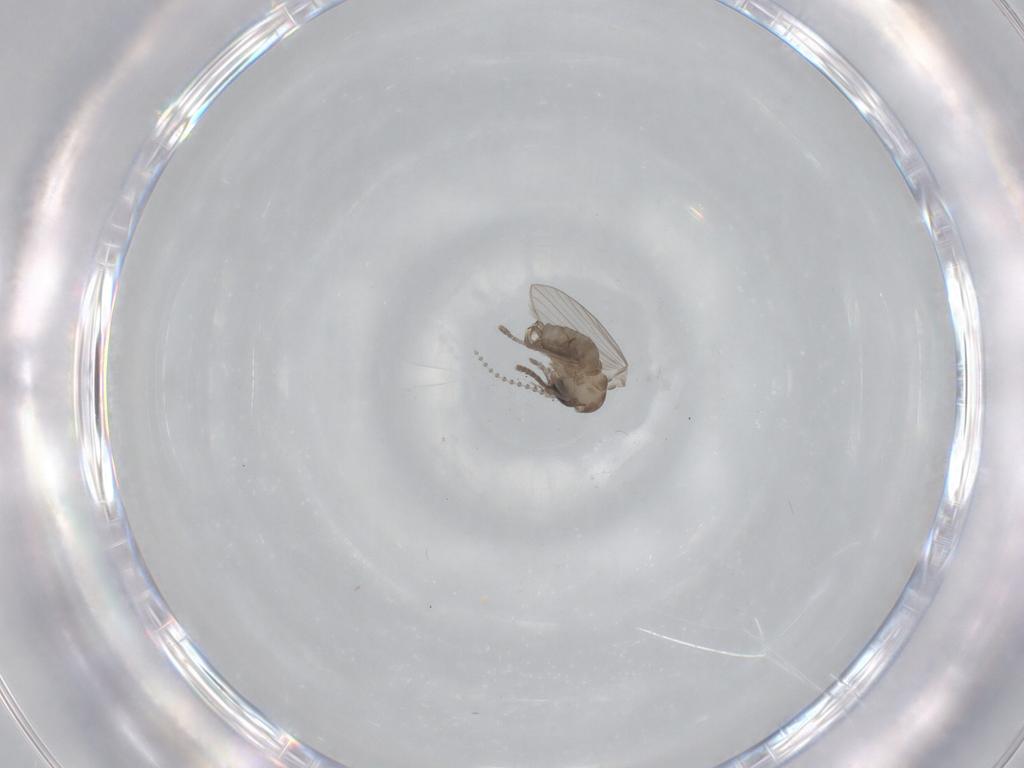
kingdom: Animalia
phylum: Arthropoda
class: Insecta
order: Diptera
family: Psychodidae
